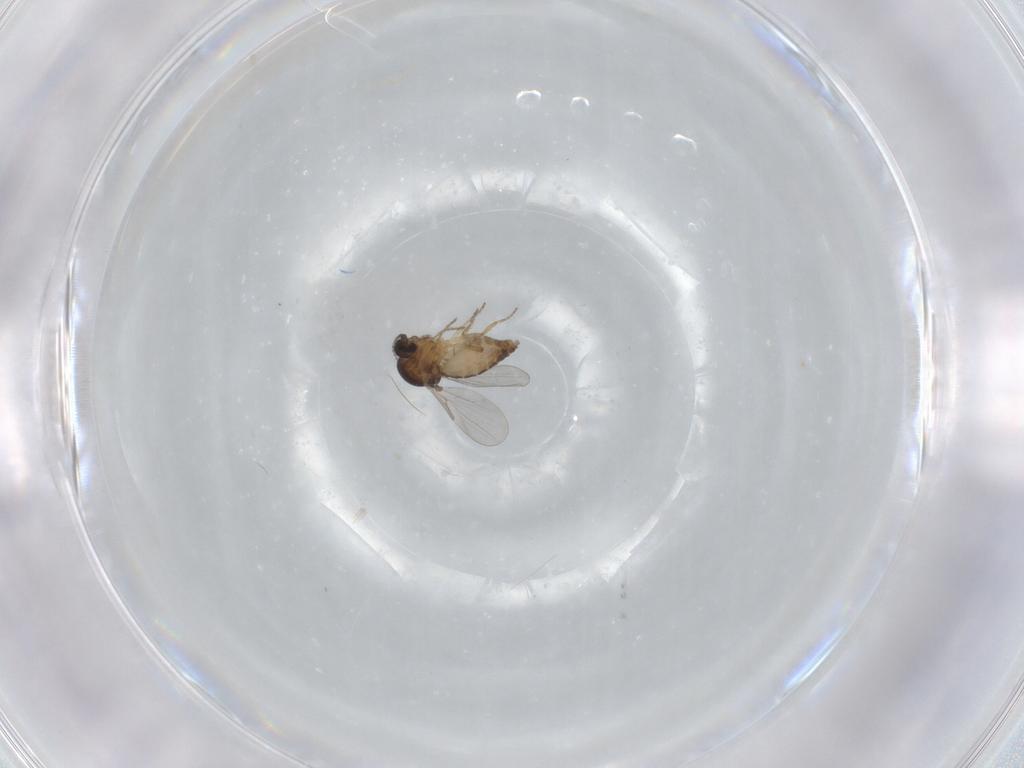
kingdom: Animalia
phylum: Arthropoda
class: Insecta
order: Diptera
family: Ceratopogonidae
